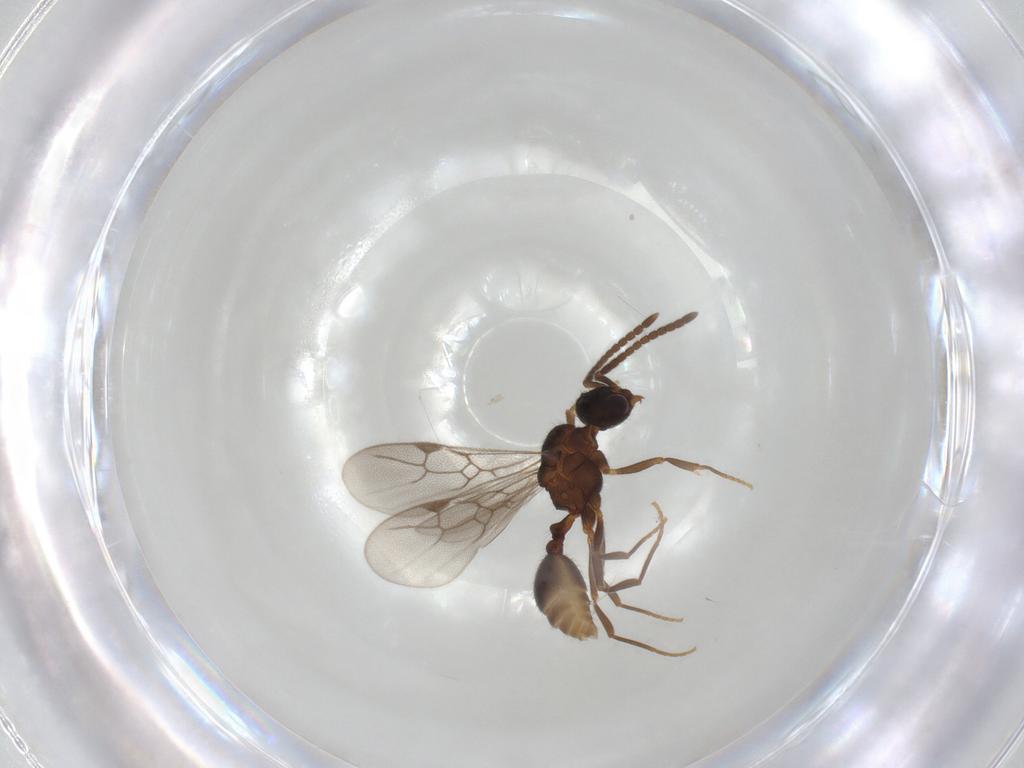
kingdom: Animalia
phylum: Arthropoda
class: Insecta
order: Hymenoptera
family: Formicidae
